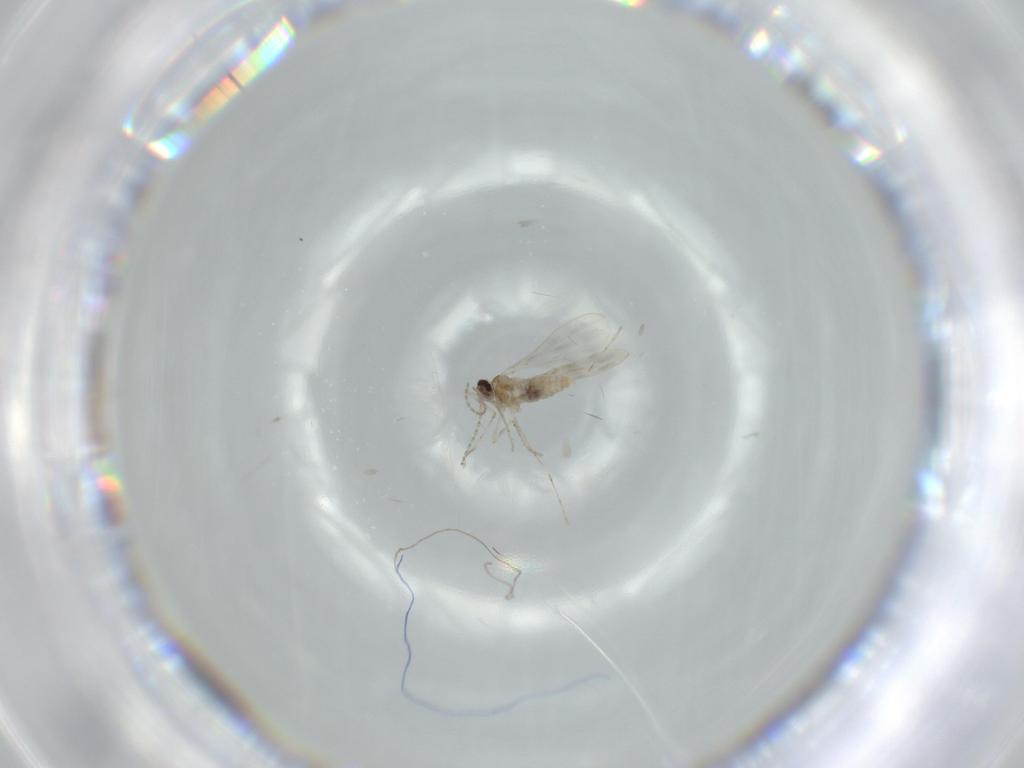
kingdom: Animalia
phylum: Arthropoda
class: Insecta
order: Diptera
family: Cecidomyiidae
